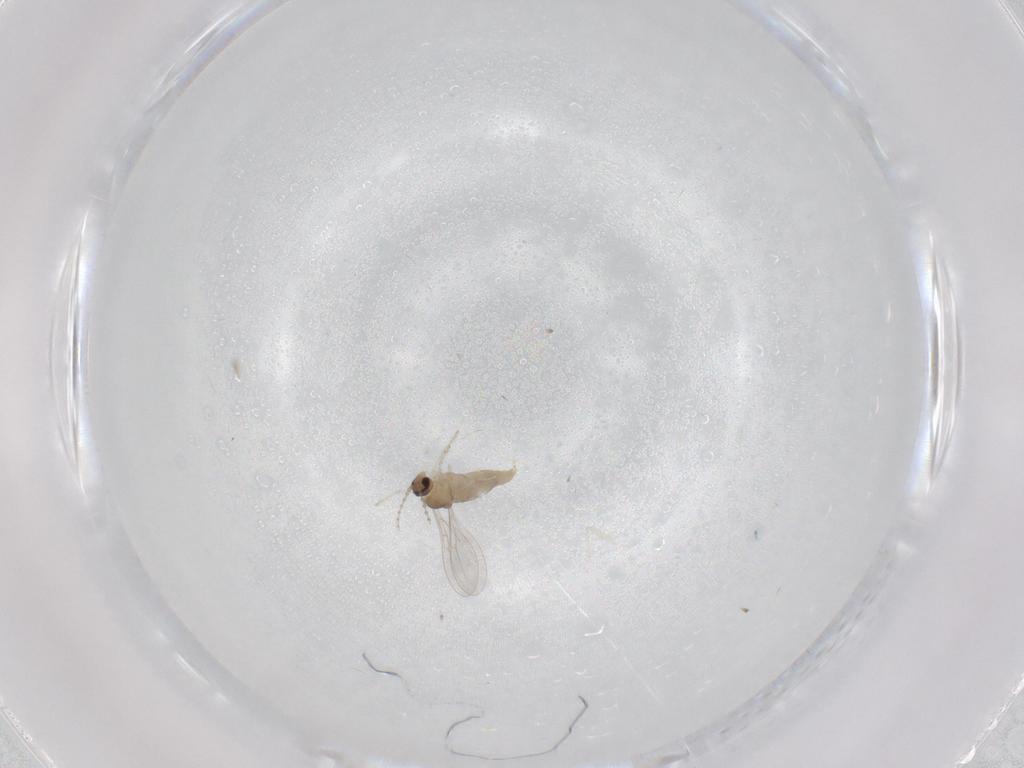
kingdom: Animalia
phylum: Arthropoda
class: Insecta
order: Diptera
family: Cecidomyiidae
